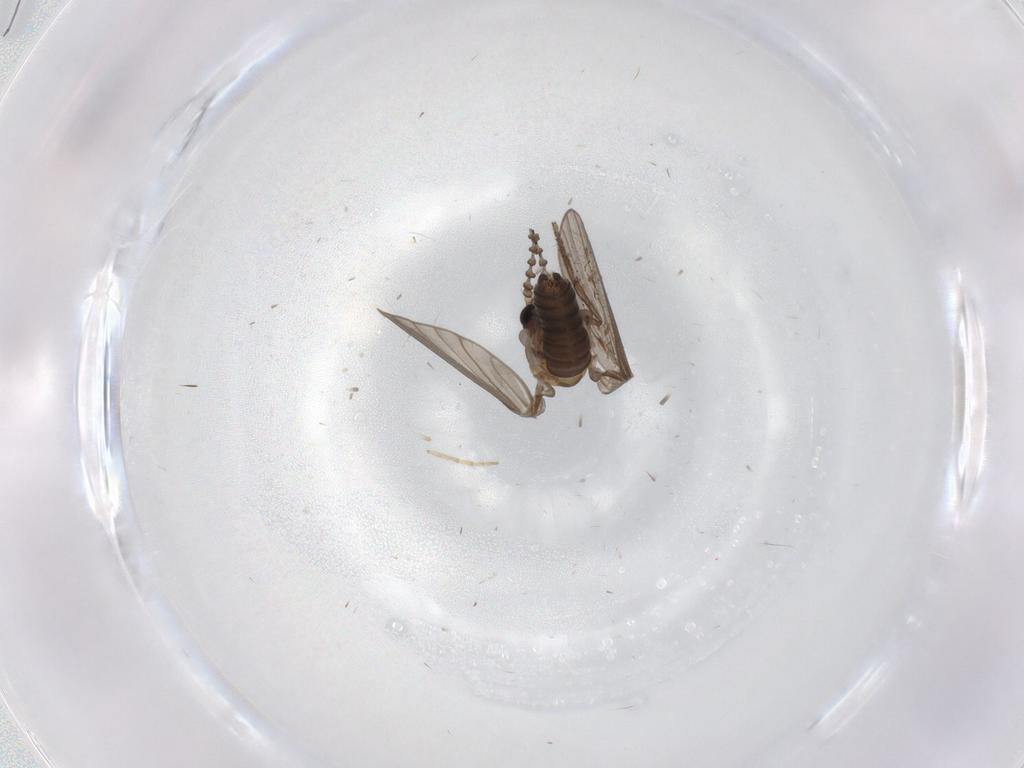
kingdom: Animalia
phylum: Arthropoda
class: Insecta
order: Diptera
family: Psychodidae
